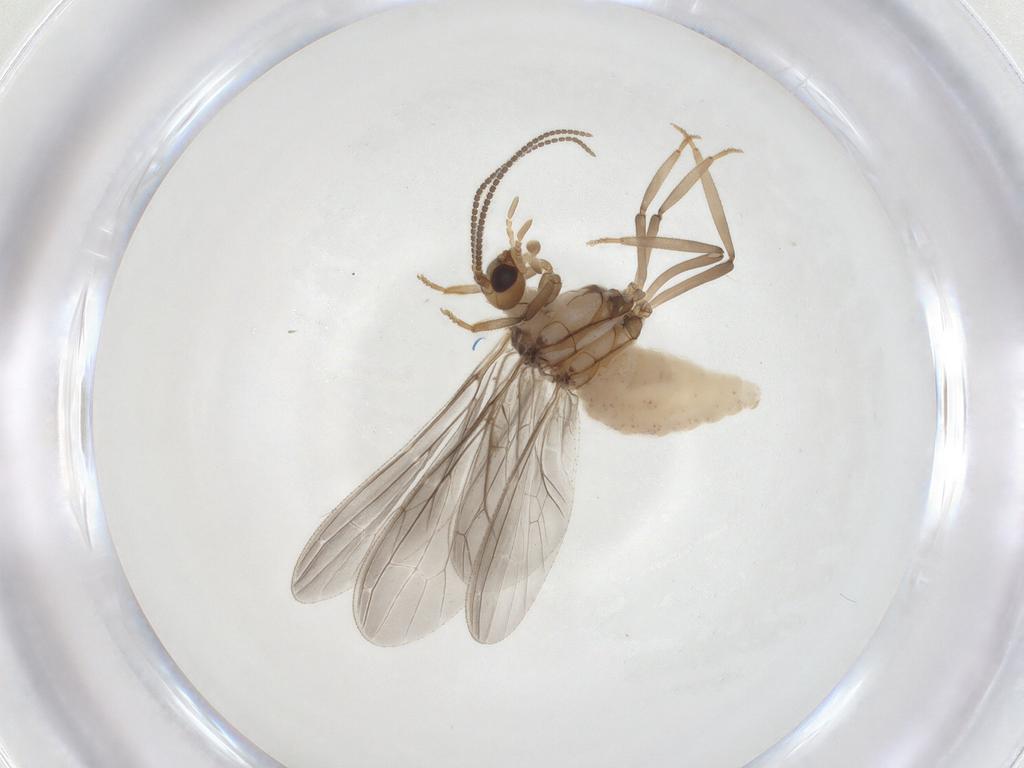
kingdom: Animalia
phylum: Arthropoda
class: Insecta
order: Neuroptera
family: Coniopterygidae
